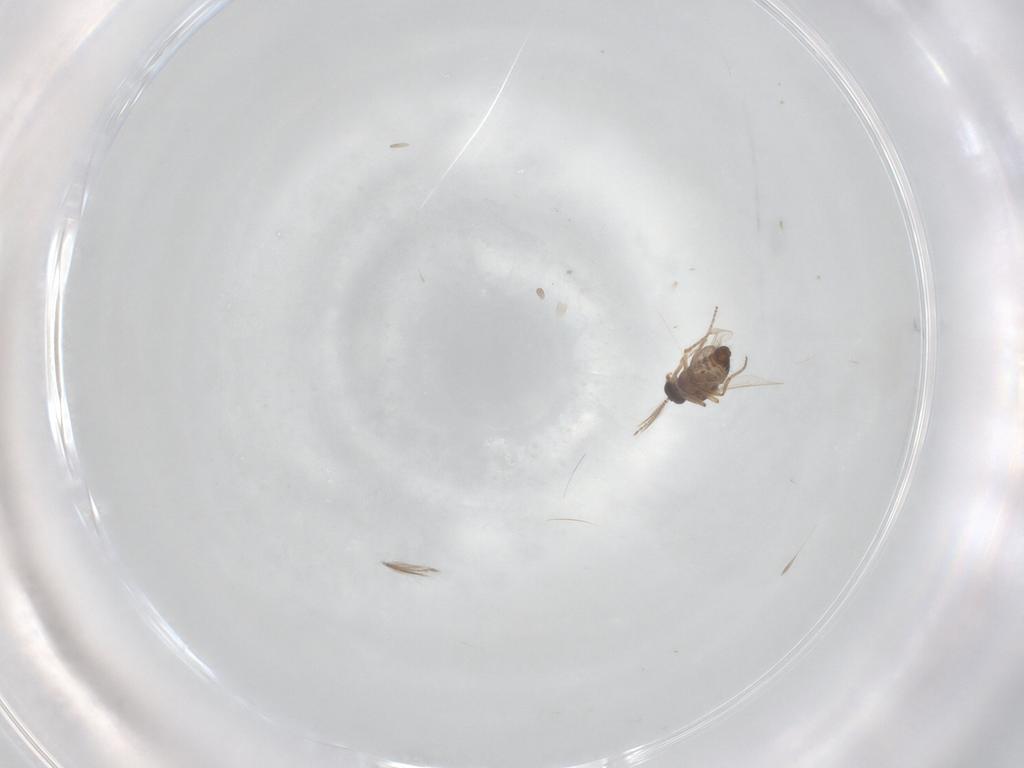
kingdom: Animalia
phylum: Arthropoda
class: Insecta
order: Diptera
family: Ceratopogonidae
